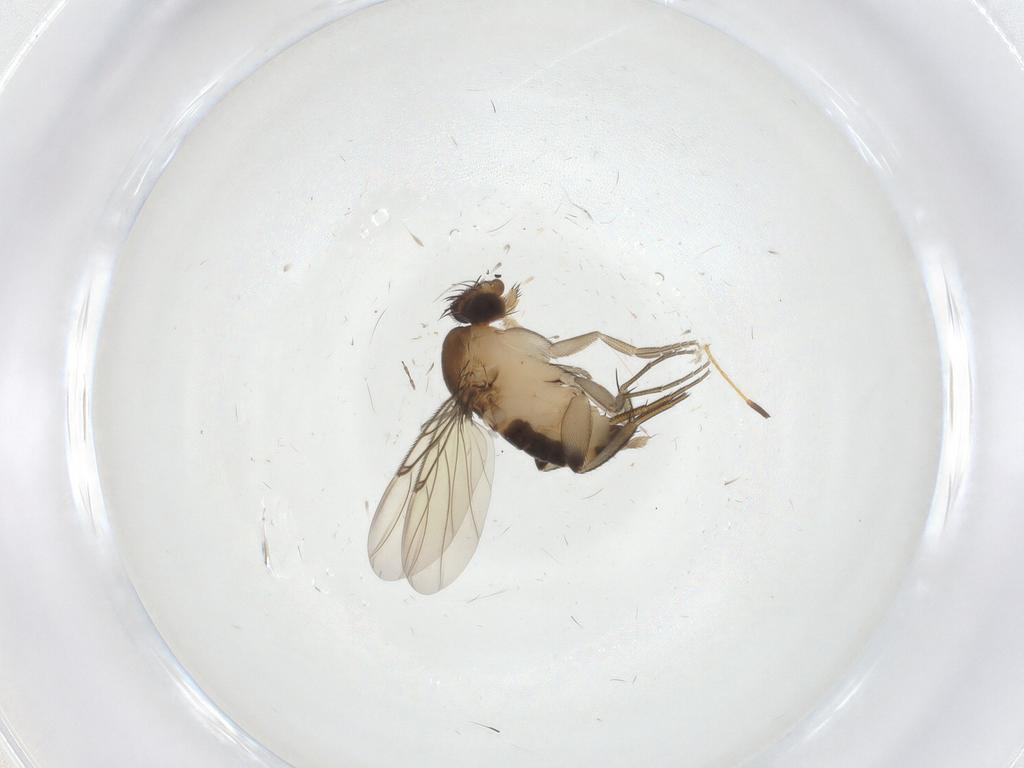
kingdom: Animalia
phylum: Arthropoda
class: Insecta
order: Diptera
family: Phoridae
